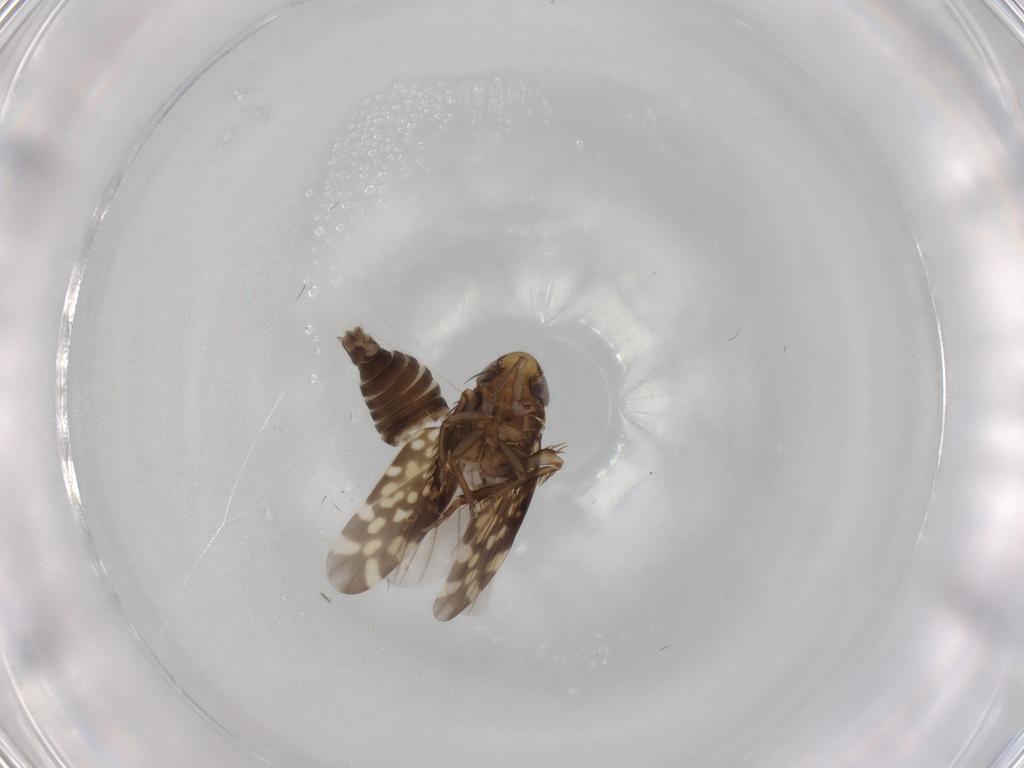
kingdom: Animalia
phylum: Arthropoda
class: Insecta
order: Hemiptera
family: Cicadellidae
